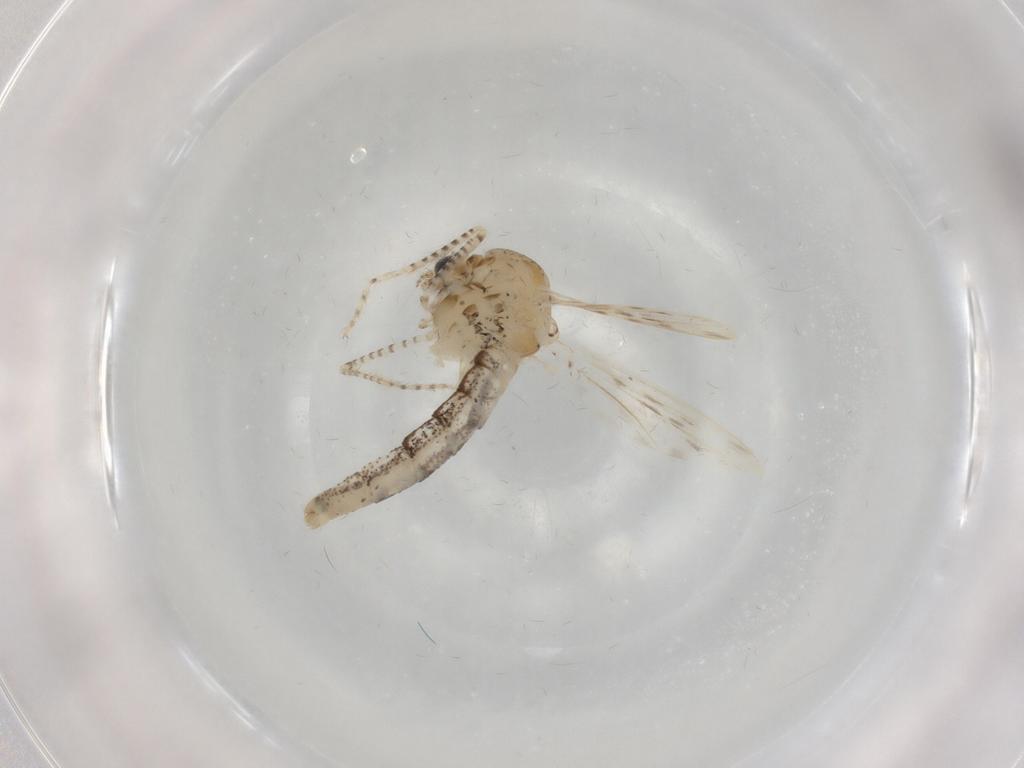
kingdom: Animalia
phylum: Arthropoda
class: Insecta
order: Diptera
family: Chaoboridae
